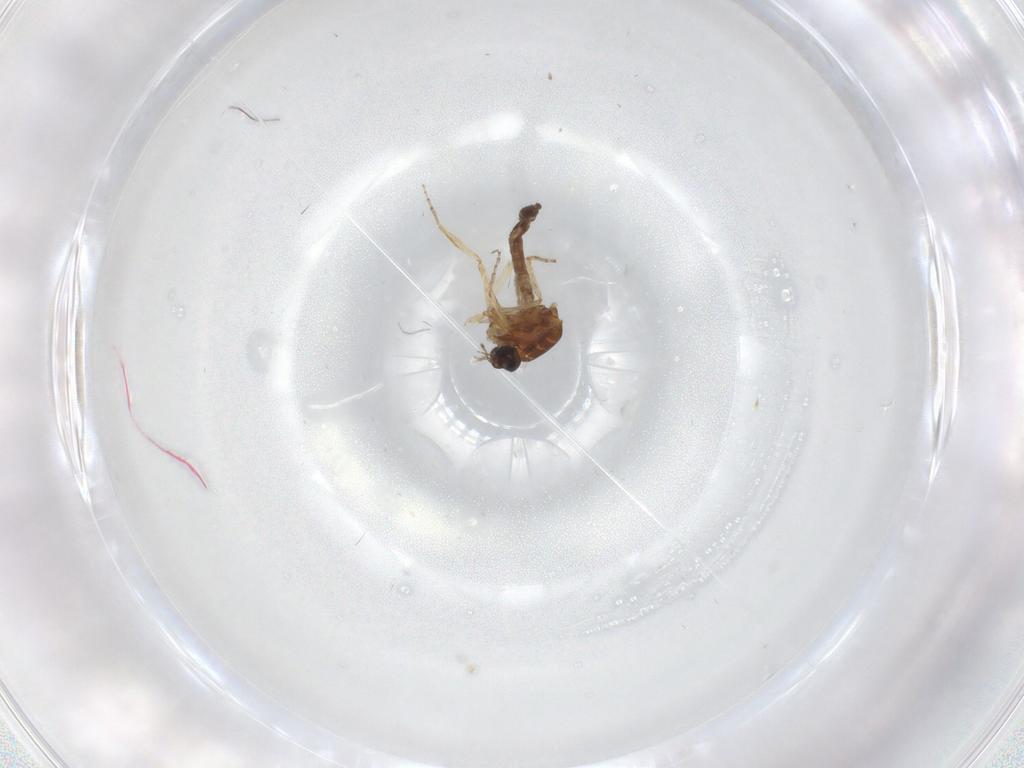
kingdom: Animalia
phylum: Arthropoda
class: Insecta
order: Diptera
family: Ceratopogonidae
